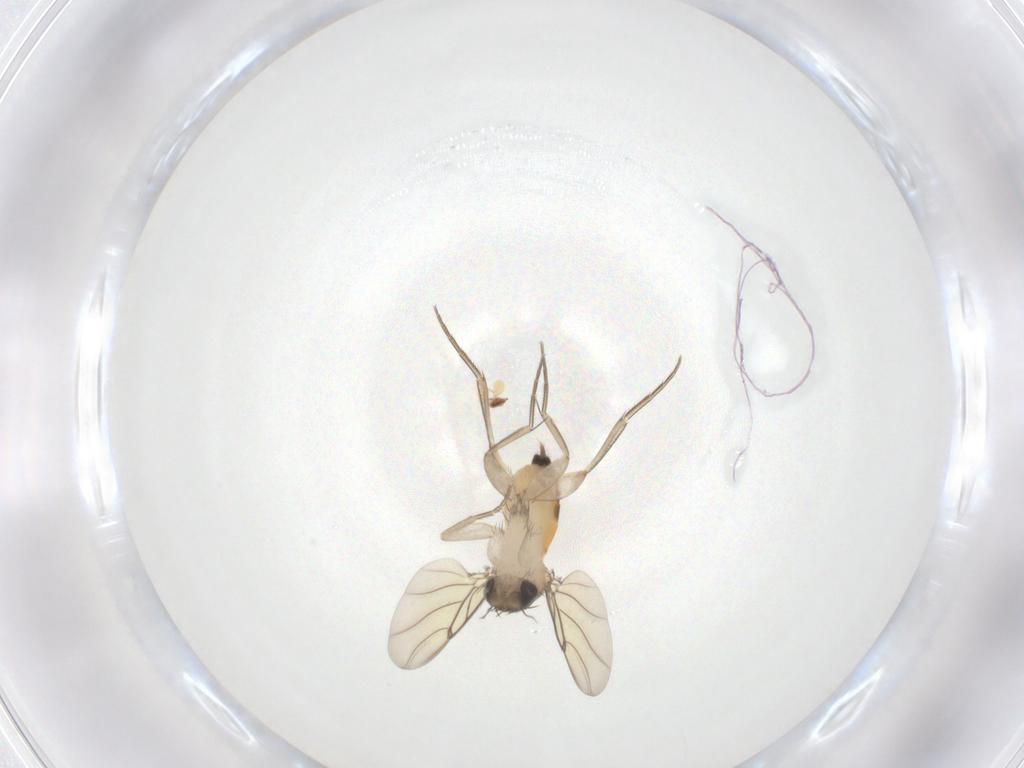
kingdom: Animalia
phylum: Arthropoda
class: Insecta
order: Diptera
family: Phoridae
